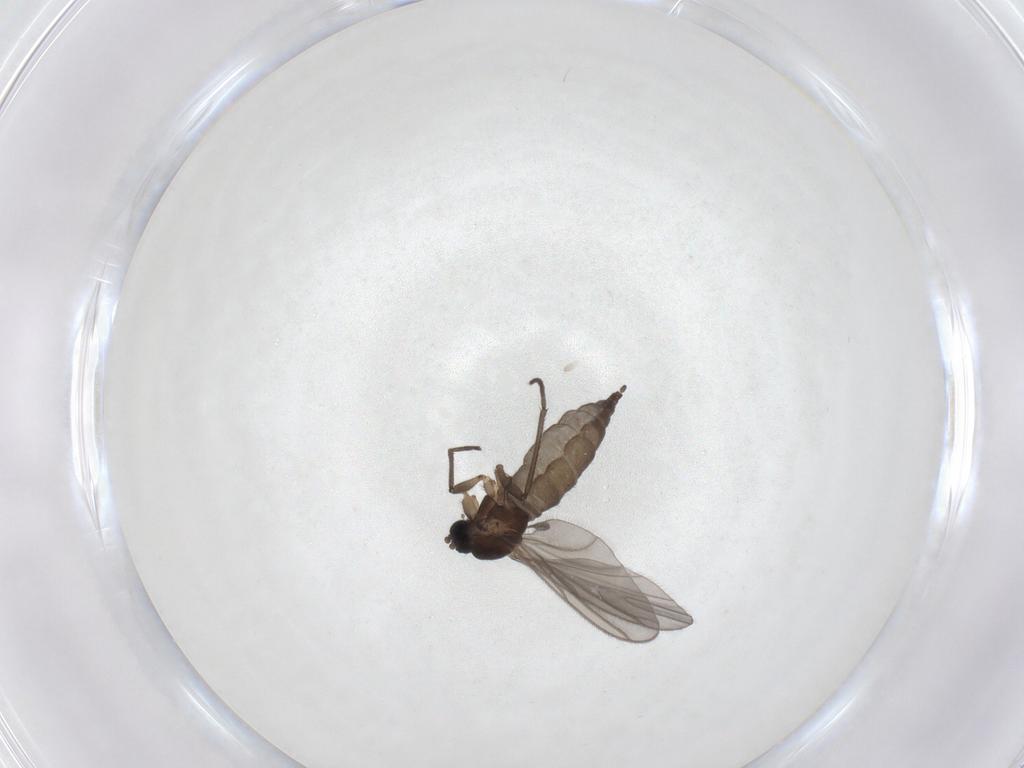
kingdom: Animalia
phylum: Arthropoda
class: Insecta
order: Diptera
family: Sciaridae
